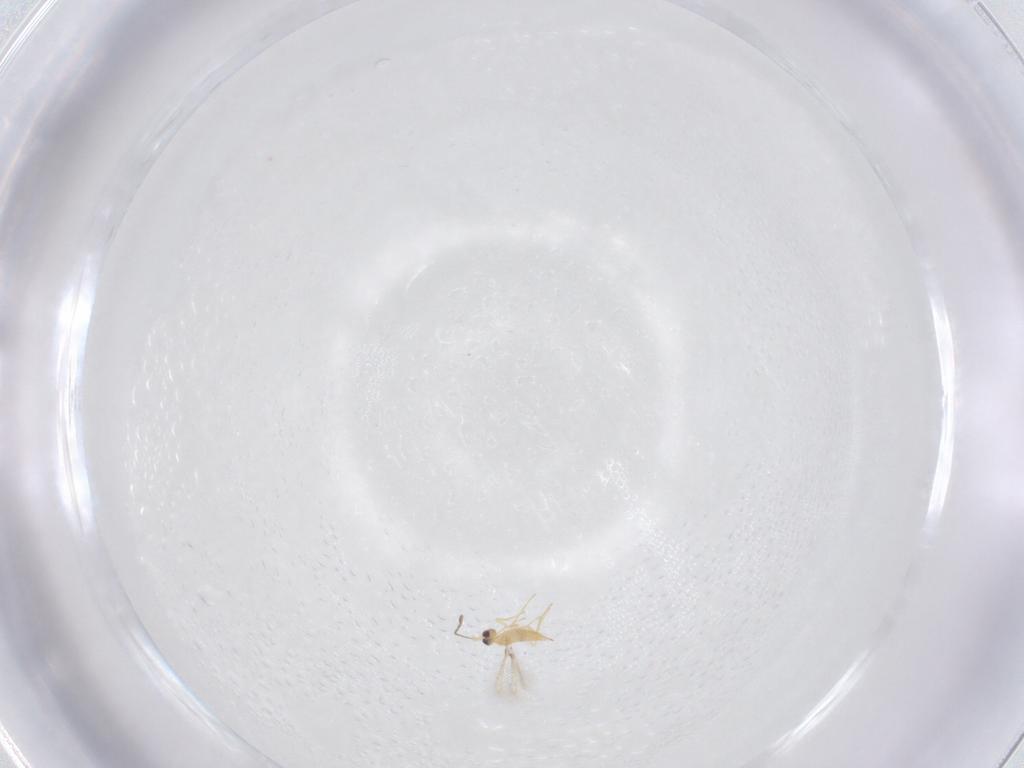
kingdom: Animalia
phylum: Arthropoda
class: Insecta
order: Hymenoptera
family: Mymaridae
